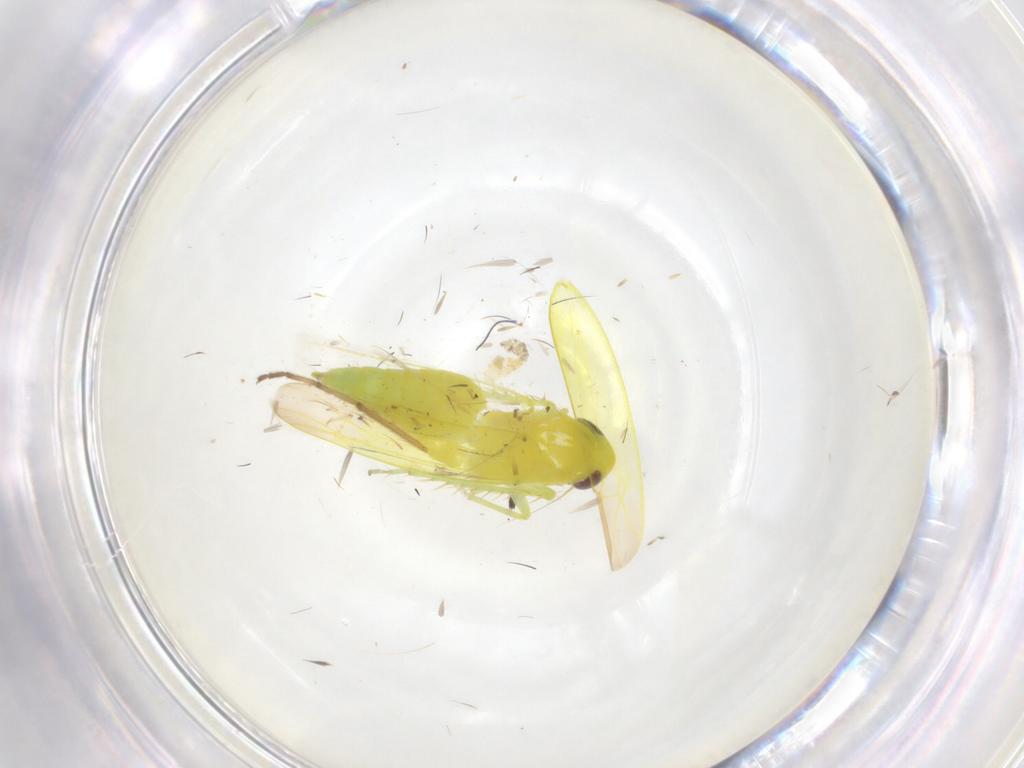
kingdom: Animalia
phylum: Arthropoda
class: Insecta
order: Hemiptera
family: Cicadellidae
